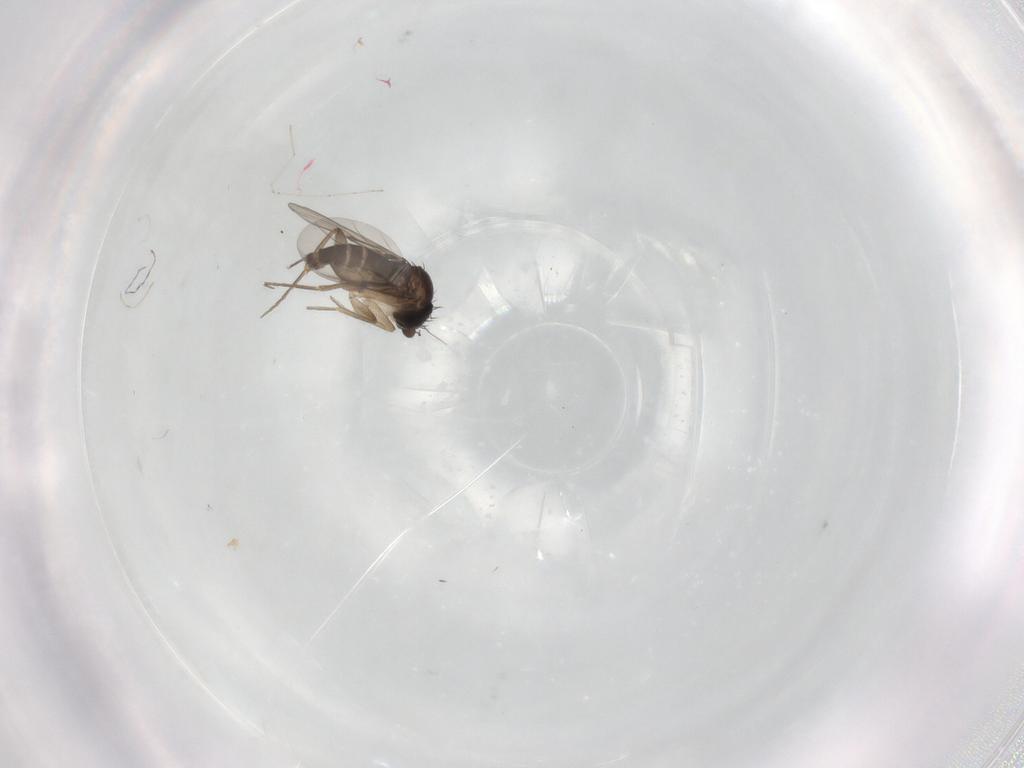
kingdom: Animalia
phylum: Arthropoda
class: Insecta
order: Diptera
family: Phoridae
